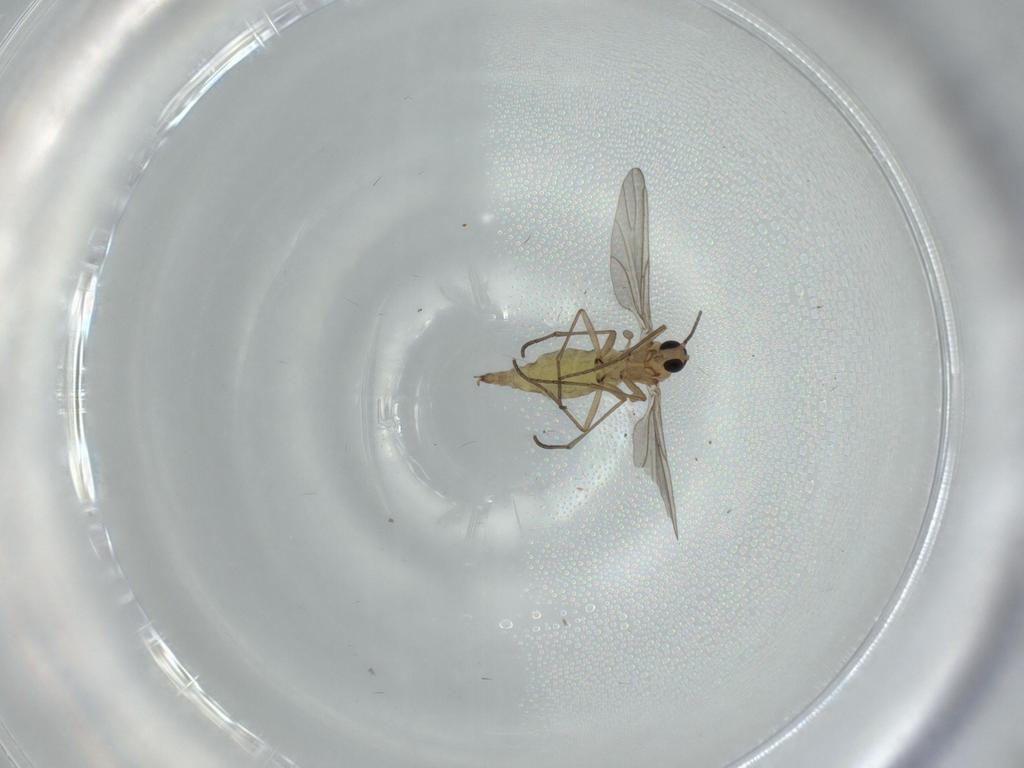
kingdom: Animalia
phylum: Arthropoda
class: Insecta
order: Diptera
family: Sciaridae
